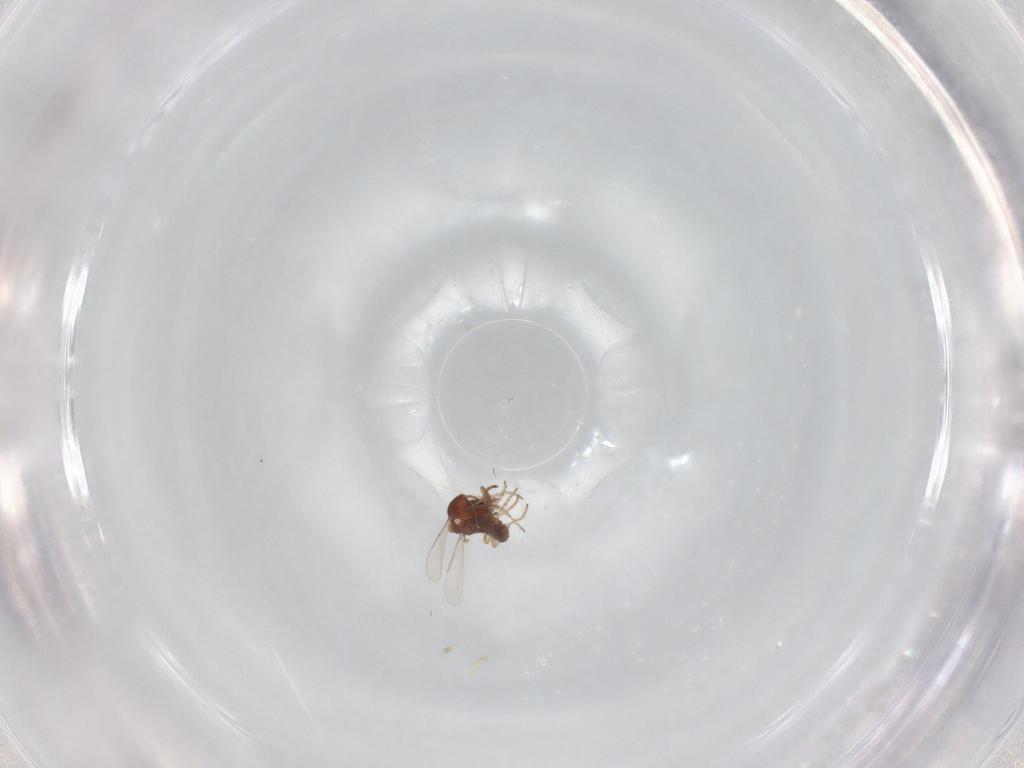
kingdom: Animalia
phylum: Arthropoda
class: Insecta
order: Diptera
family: Ceratopogonidae
